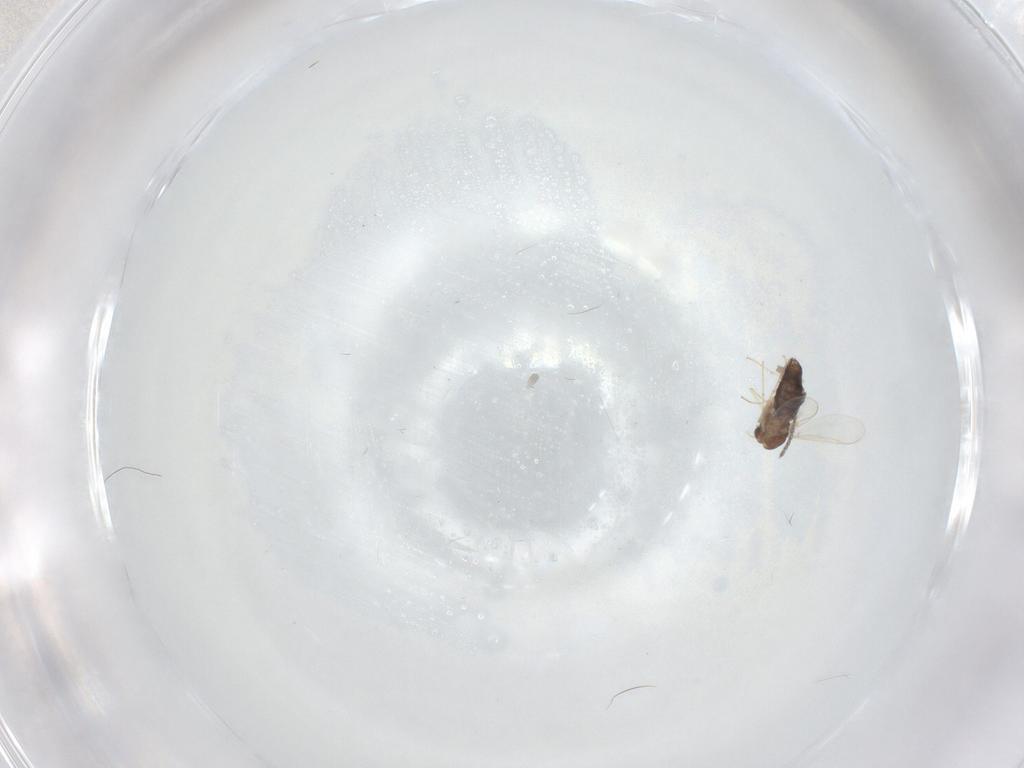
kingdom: Animalia
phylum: Arthropoda
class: Insecta
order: Diptera
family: Chironomidae
